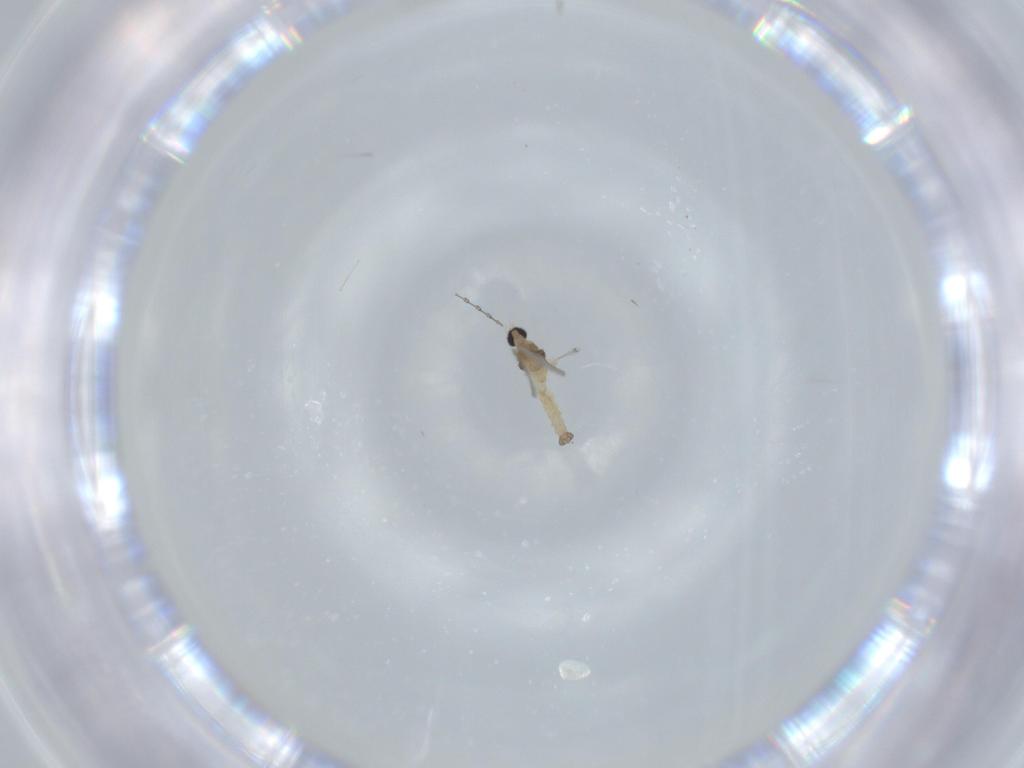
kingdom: Animalia
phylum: Arthropoda
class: Insecta
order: Diptera
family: Cecidomyiidae
